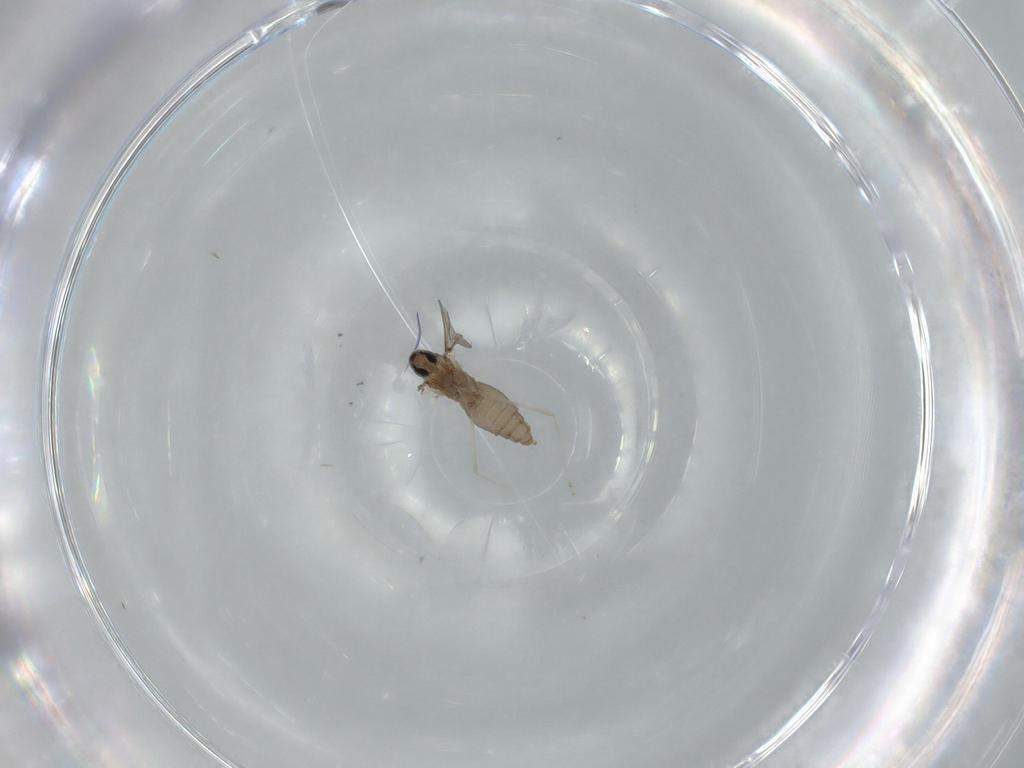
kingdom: Animalia
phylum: Arthropoda
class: Insecta
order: Diptera
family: Cecidomyiidae
